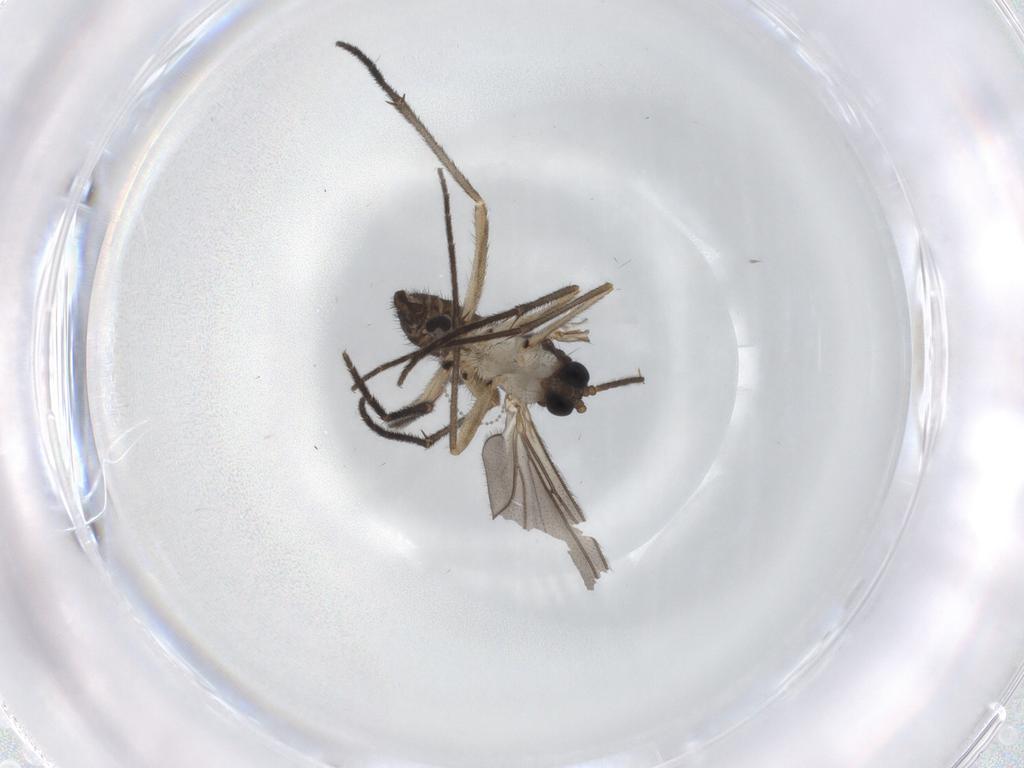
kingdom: Animalia
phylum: Arthropoda
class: Insecta
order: Diptera
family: Sciaridae
